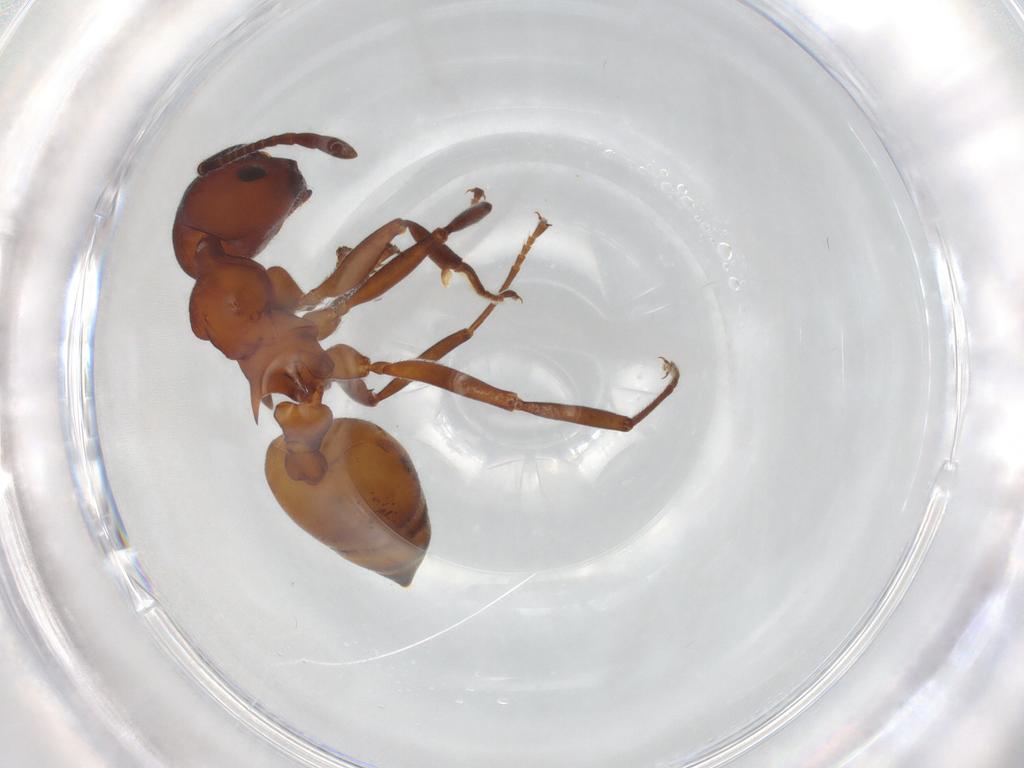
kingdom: Animalia
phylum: Arthropoda
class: Insecta
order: Hymenoptera
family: Formicidae
